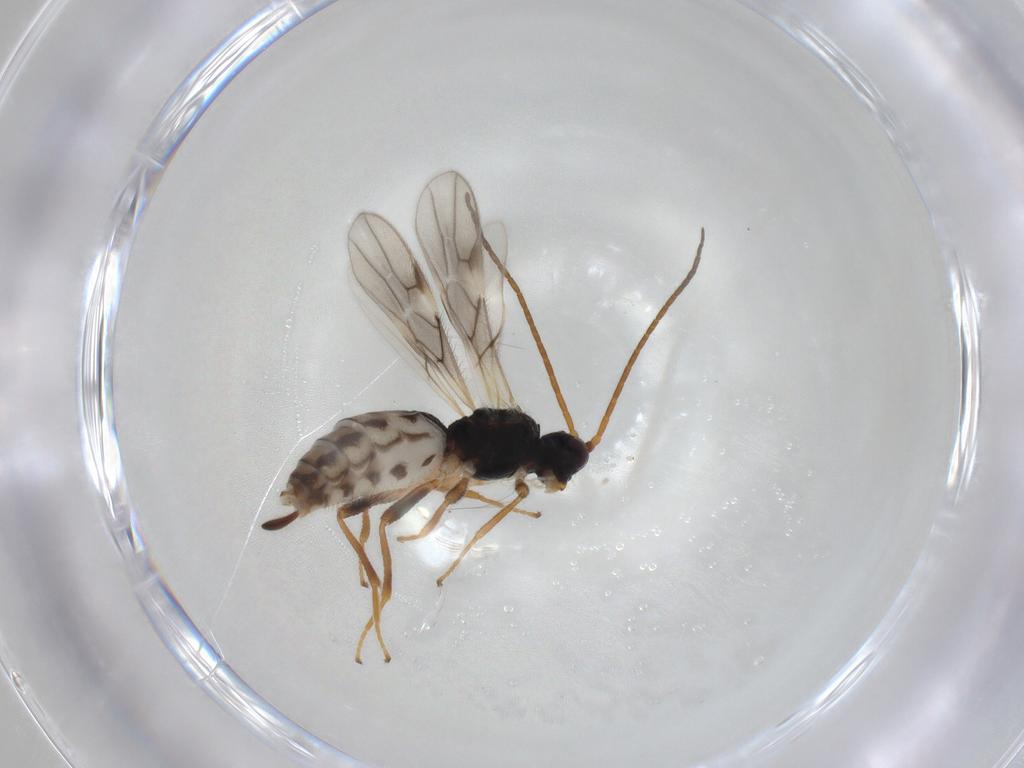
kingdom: Animalia
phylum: Arthropoda
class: Insecta
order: Hymenoptera
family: Braconidae
